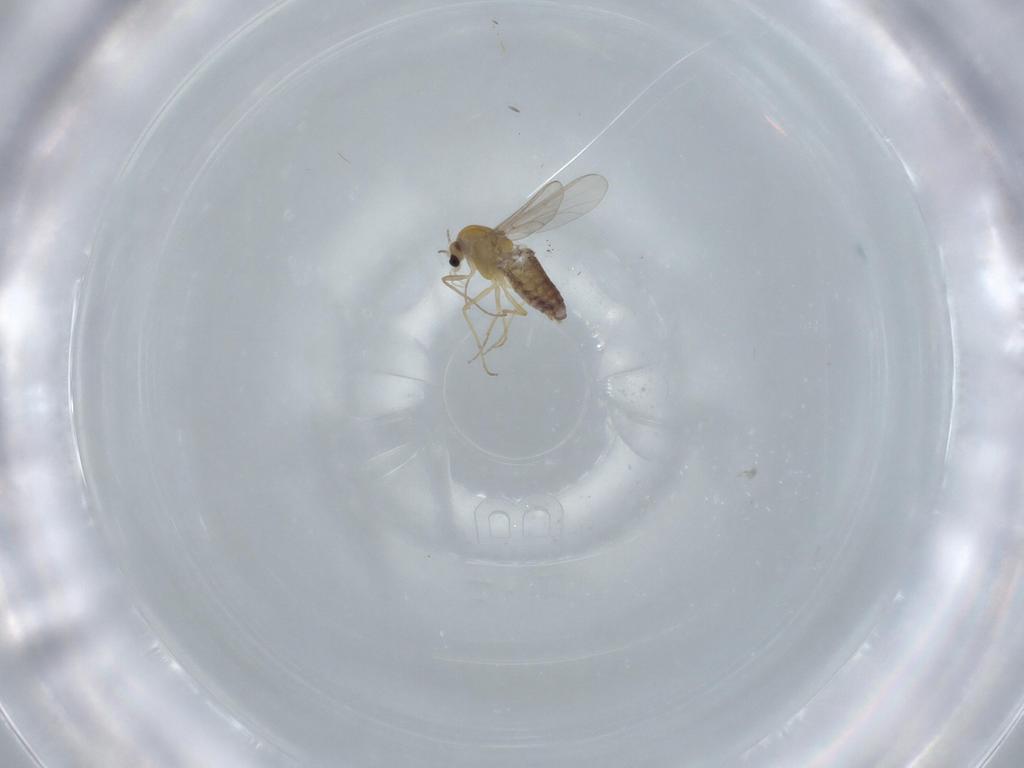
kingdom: Animalia
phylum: Arthropoda
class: Insecta
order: Diptera
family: Chironomidae
